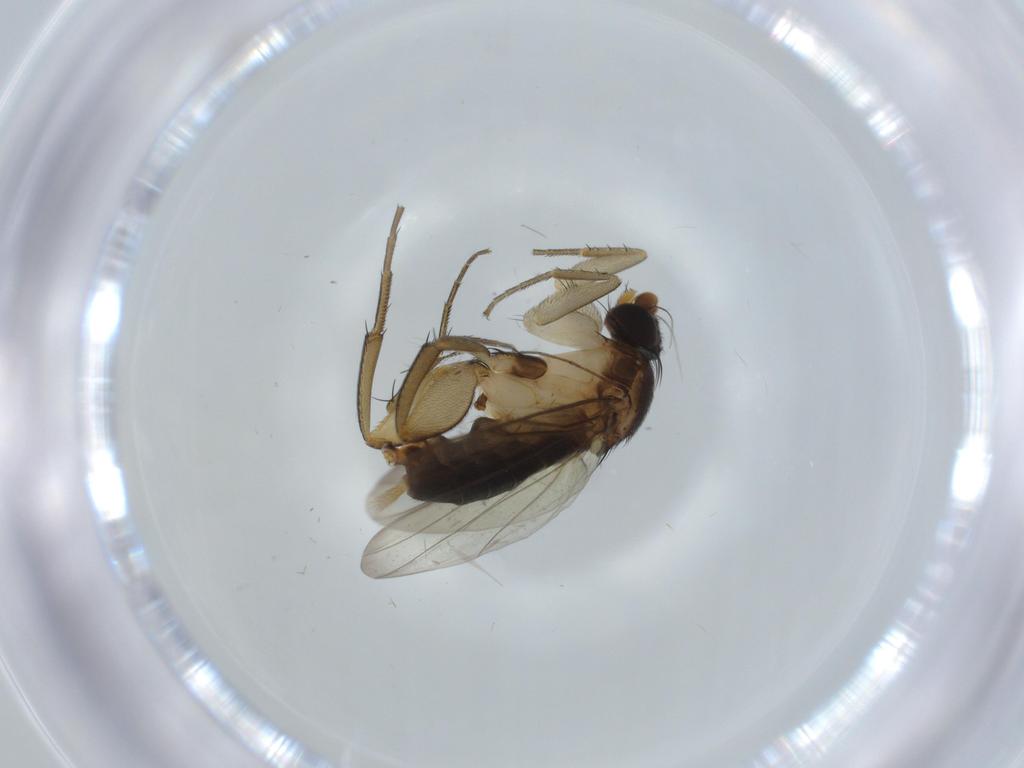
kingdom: Animalia
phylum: Arthropoda
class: Insecta
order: Diptera
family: Chironomidae
